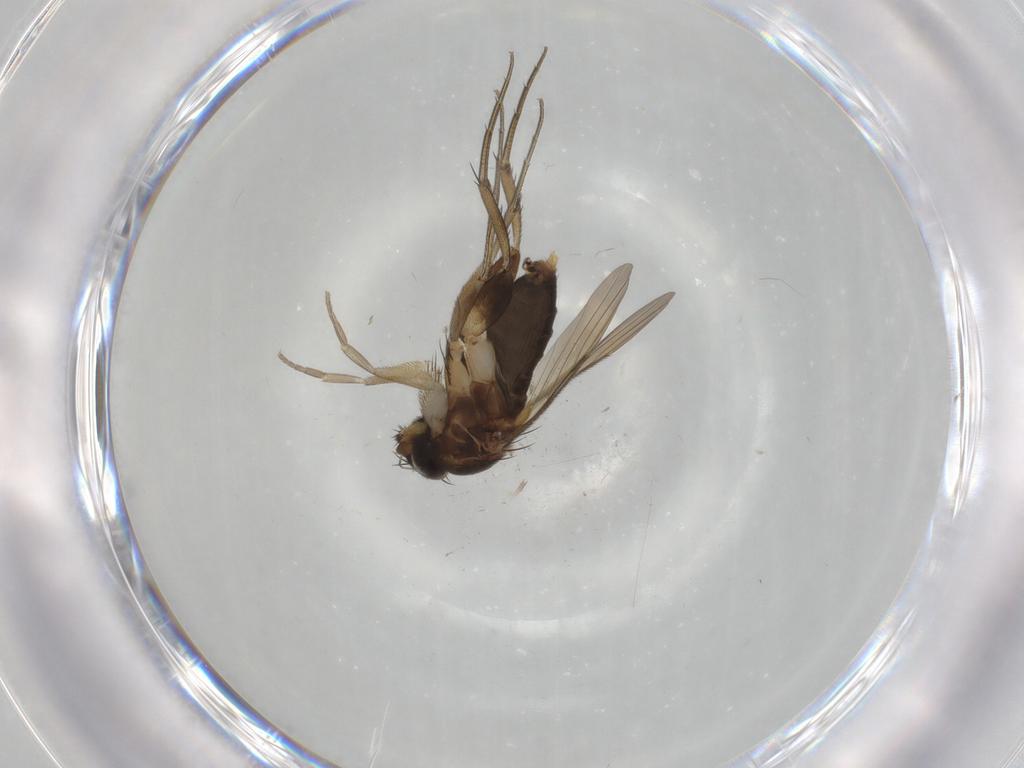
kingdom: Animalia
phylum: Arthropoda
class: Insecta
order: Diptera
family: Phoridae
